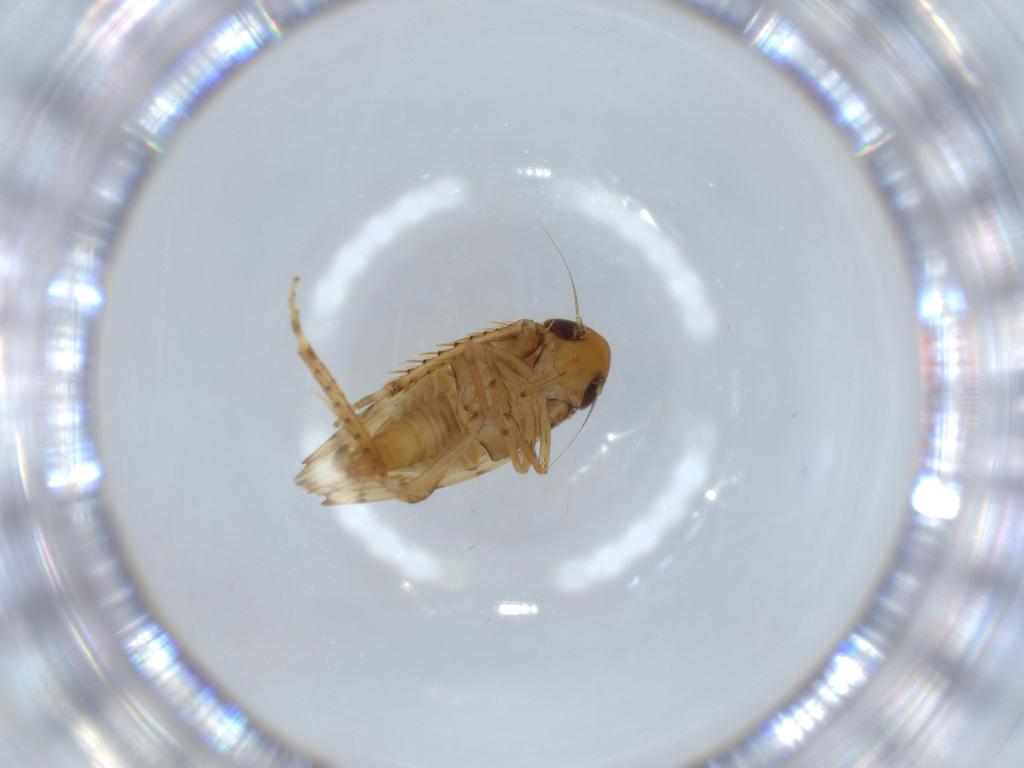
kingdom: Animalia
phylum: Arthropoda
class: Insecta
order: Hemiptera
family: Cicadellidae
